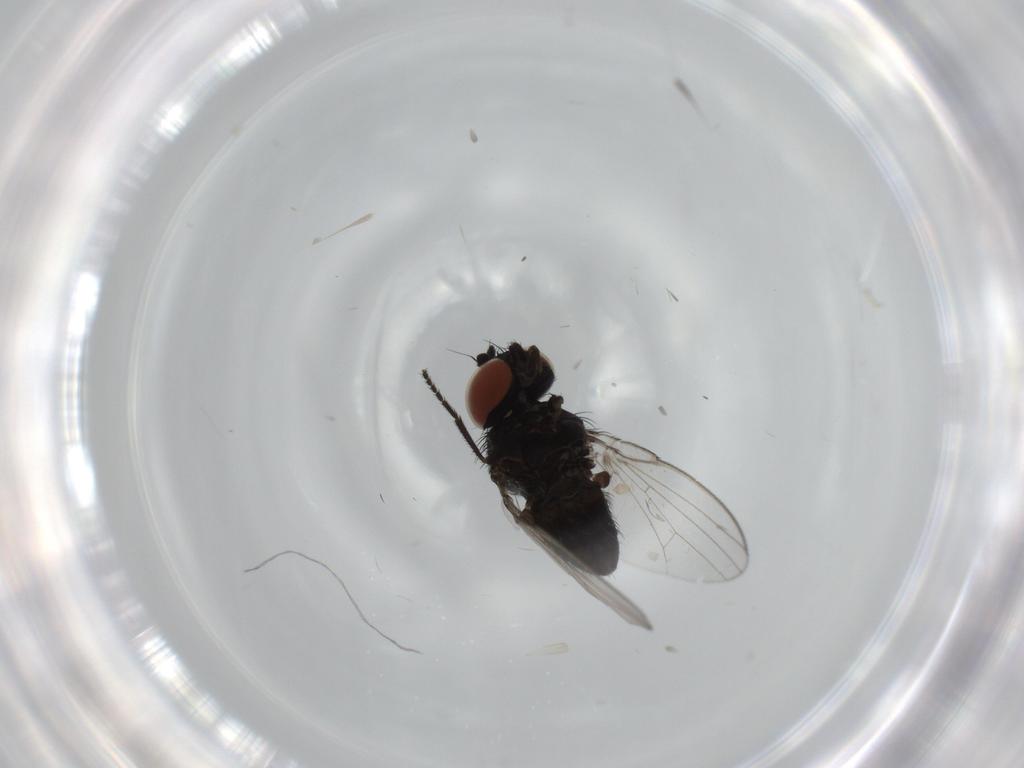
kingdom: Animalia
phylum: Arthropoda
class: Insecta
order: Diptera
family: Milichiidae
